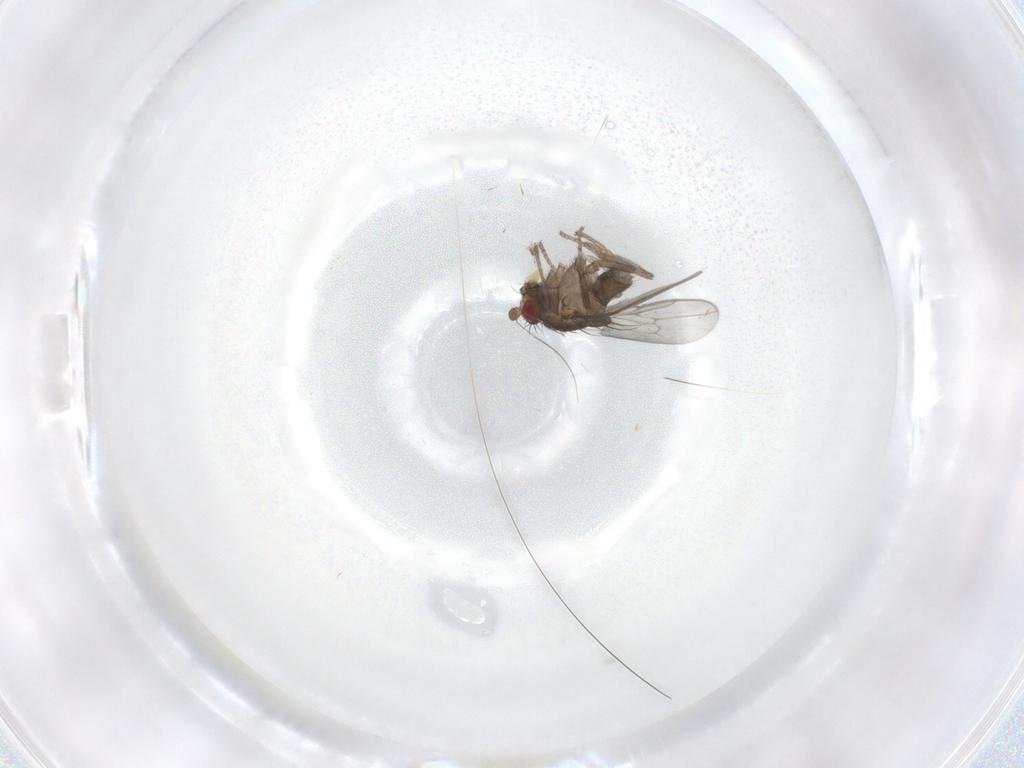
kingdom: Animalia
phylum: Arthropoda
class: Insecta
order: Diptera
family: Sphaeroceridae
